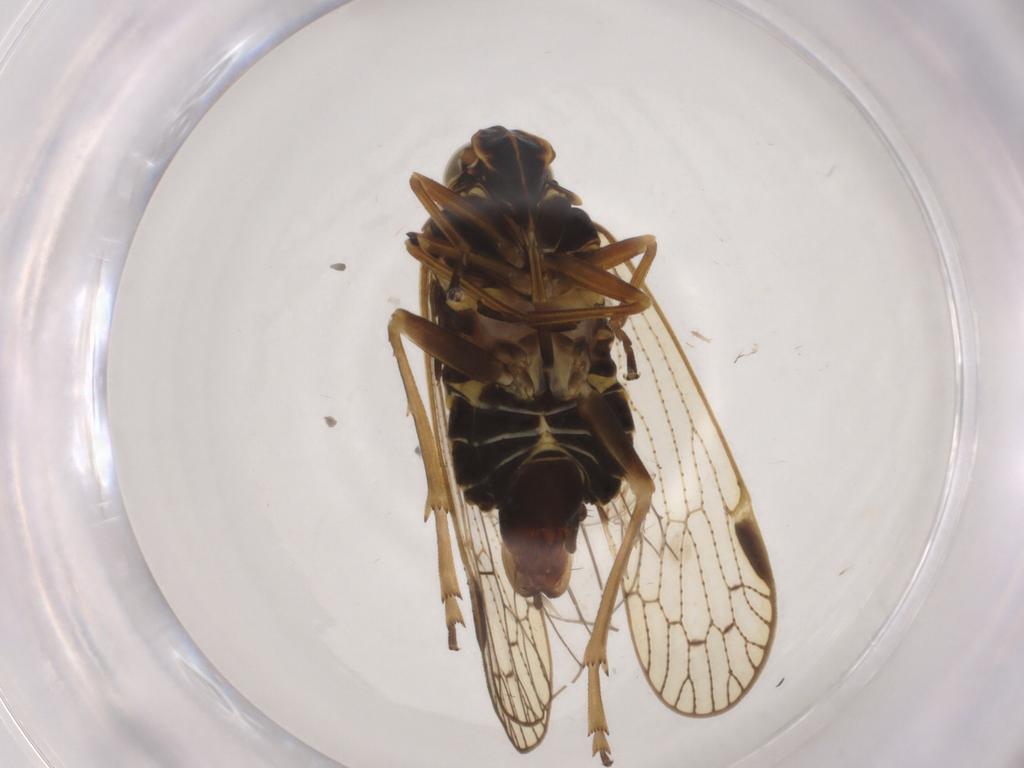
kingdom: Animalia
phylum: Arthropoda
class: Insecta
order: Hemiptera
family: Cixiidae
